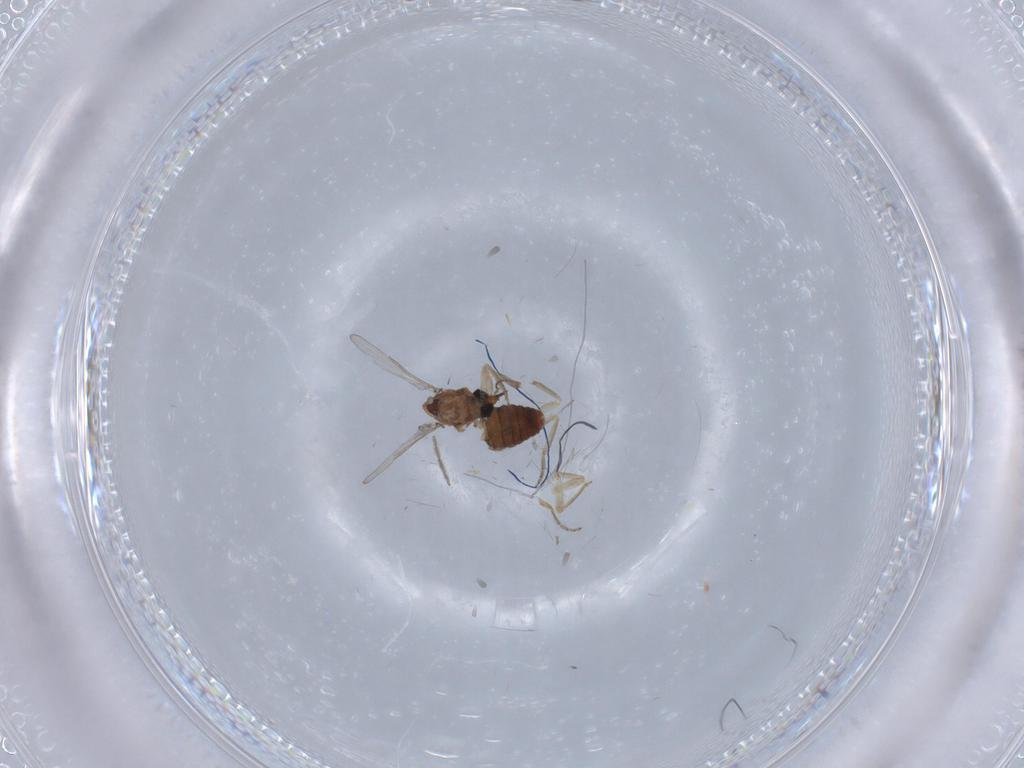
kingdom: Animalia
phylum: Arthropoda
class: Insecta
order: Diptera
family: Ceratopogonidae
